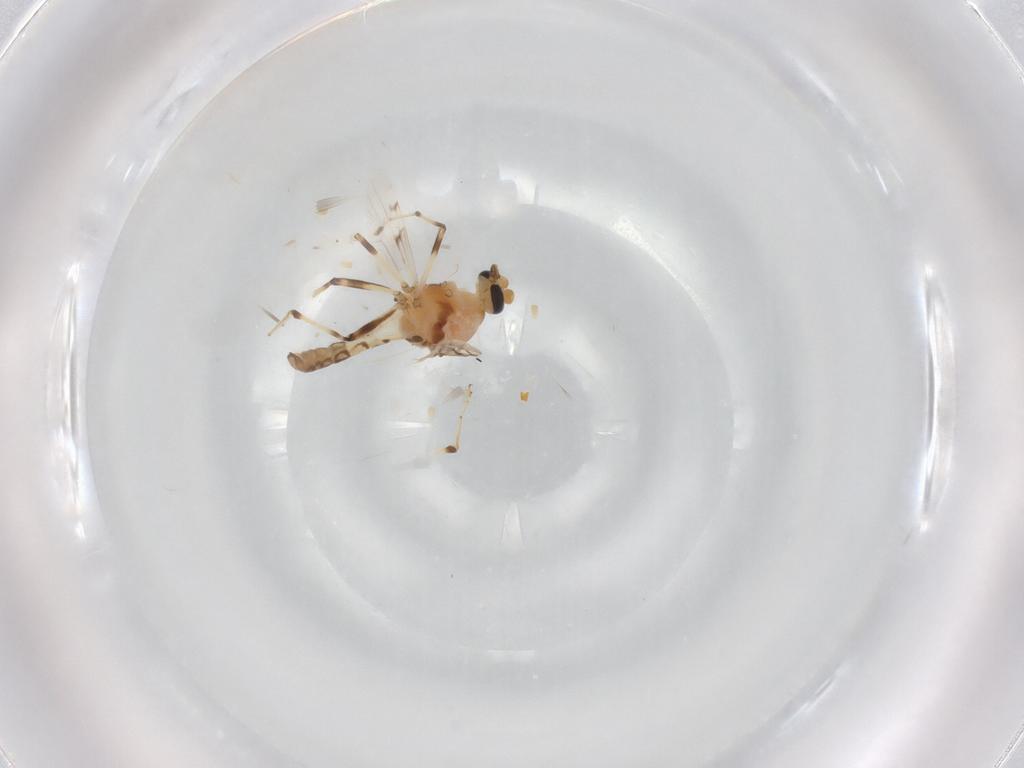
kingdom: Animalia
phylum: Arthropoda
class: Insecta
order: Diptera
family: Ceratopogonidae
